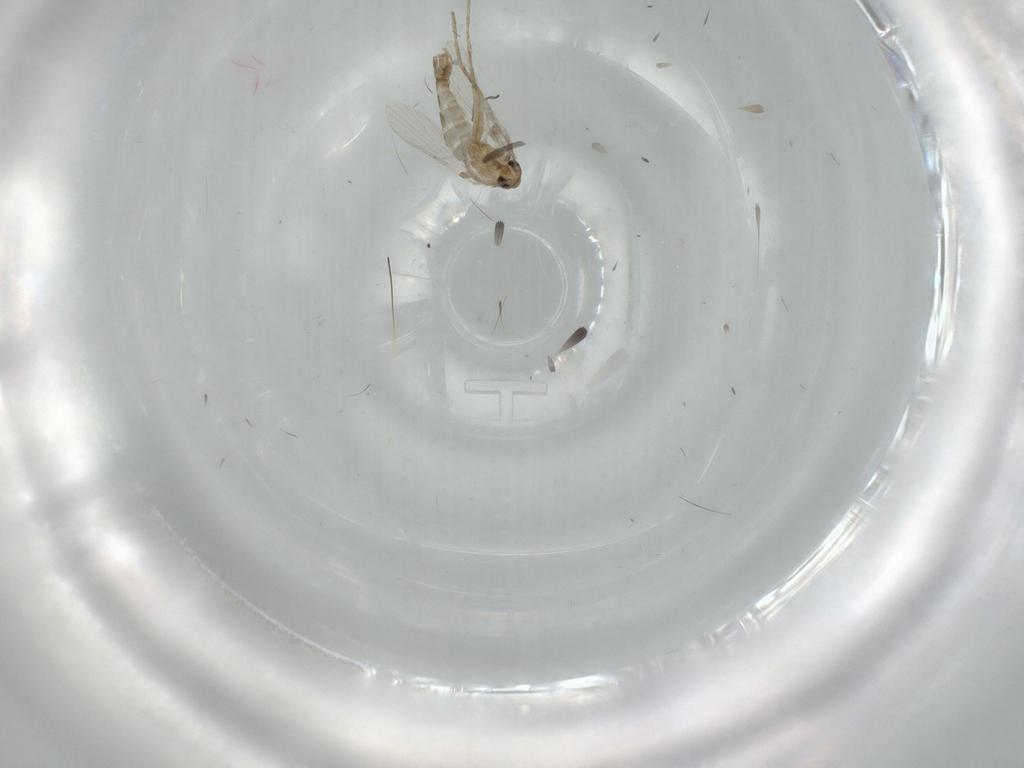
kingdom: Animalia
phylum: Arthropoda
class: Insecta
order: Diptera
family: Psychodidae
